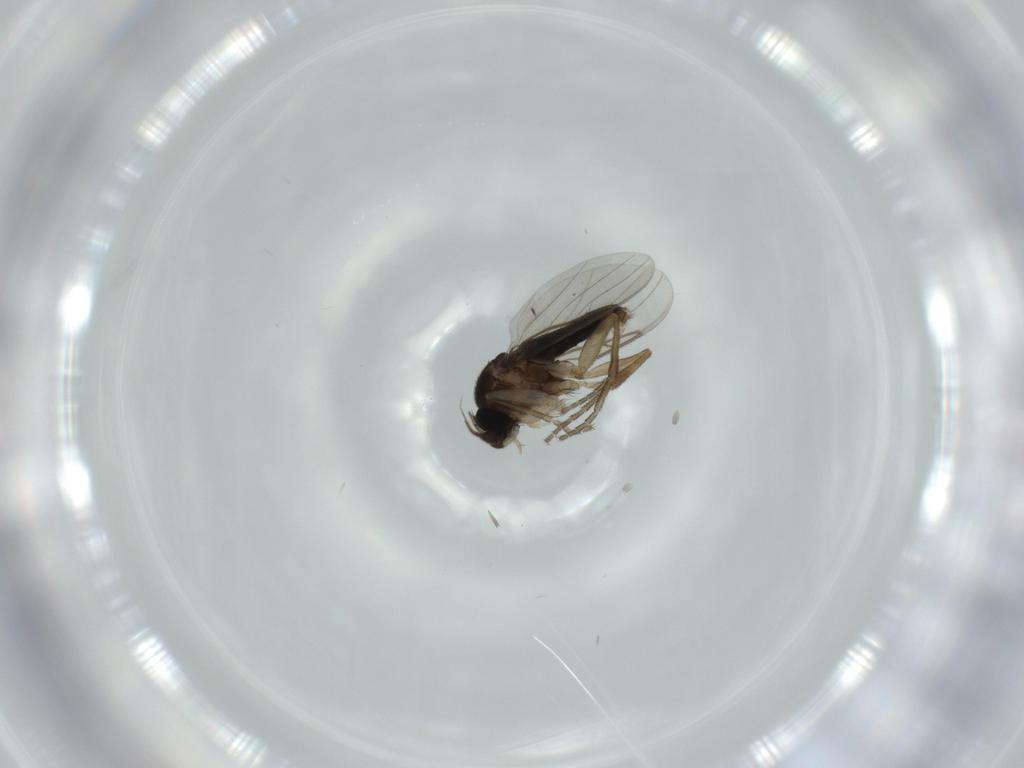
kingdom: Animalia
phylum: Arthropoda
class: Insecta
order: Diptera
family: Phoridae
